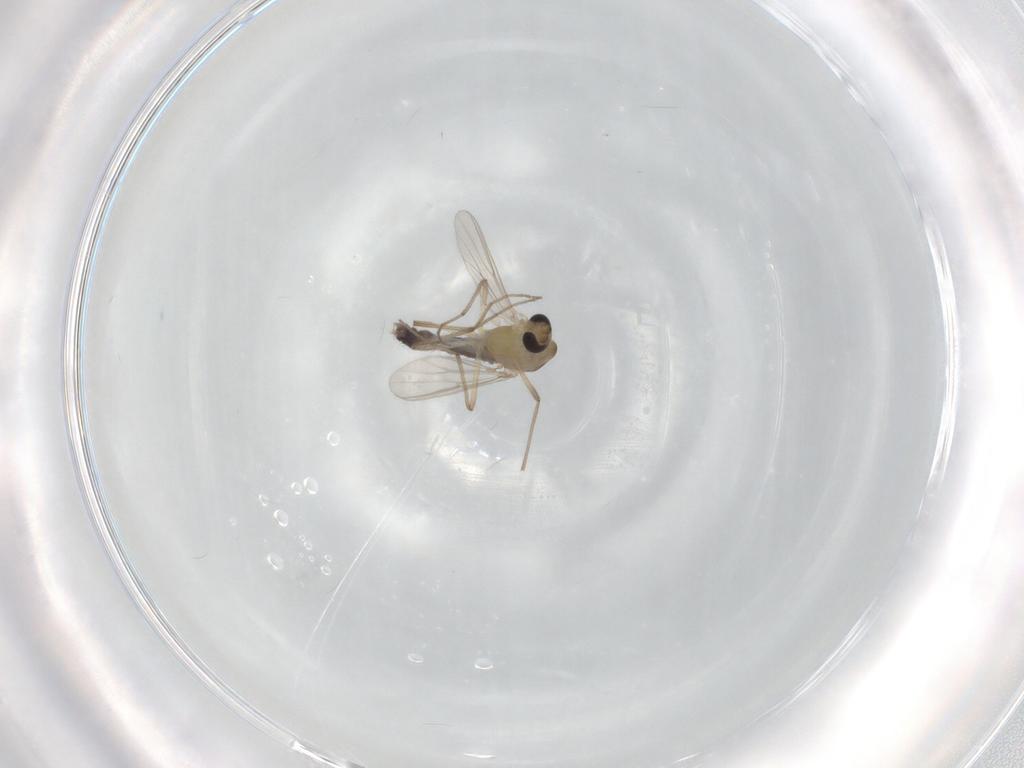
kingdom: Animalia
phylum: Arthropoda
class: Insecta
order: Diptera
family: Chironomidae
